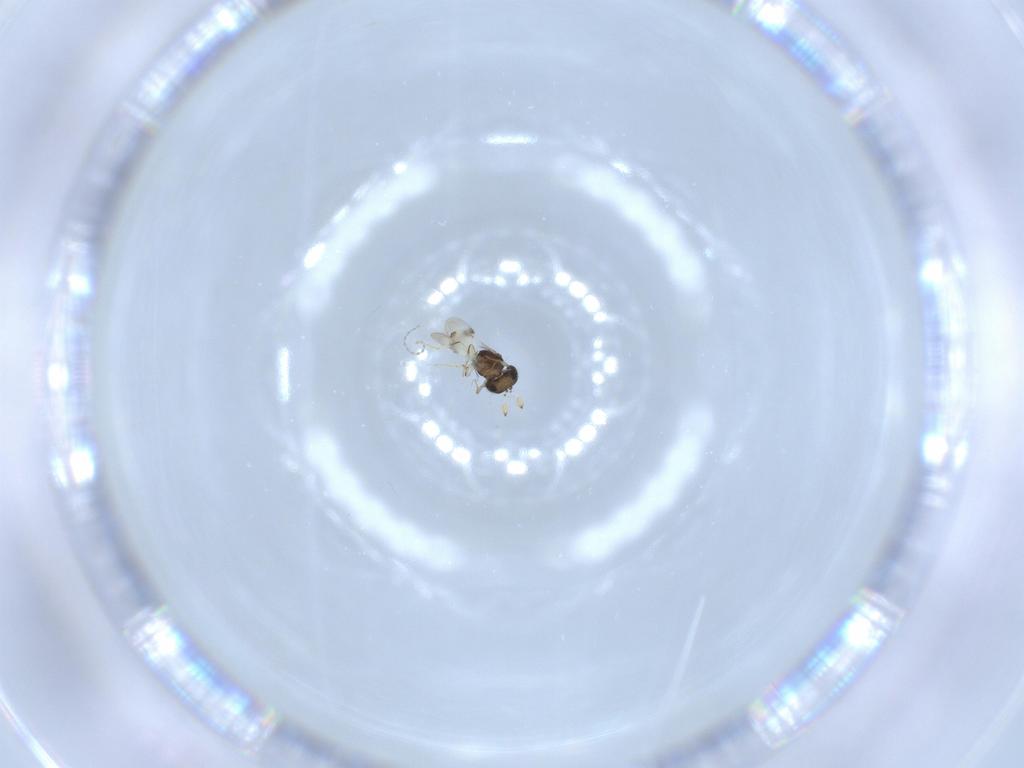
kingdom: Animalia
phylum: Arthropoda
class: Insecta
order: Hymenoptera
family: Scelionidae
